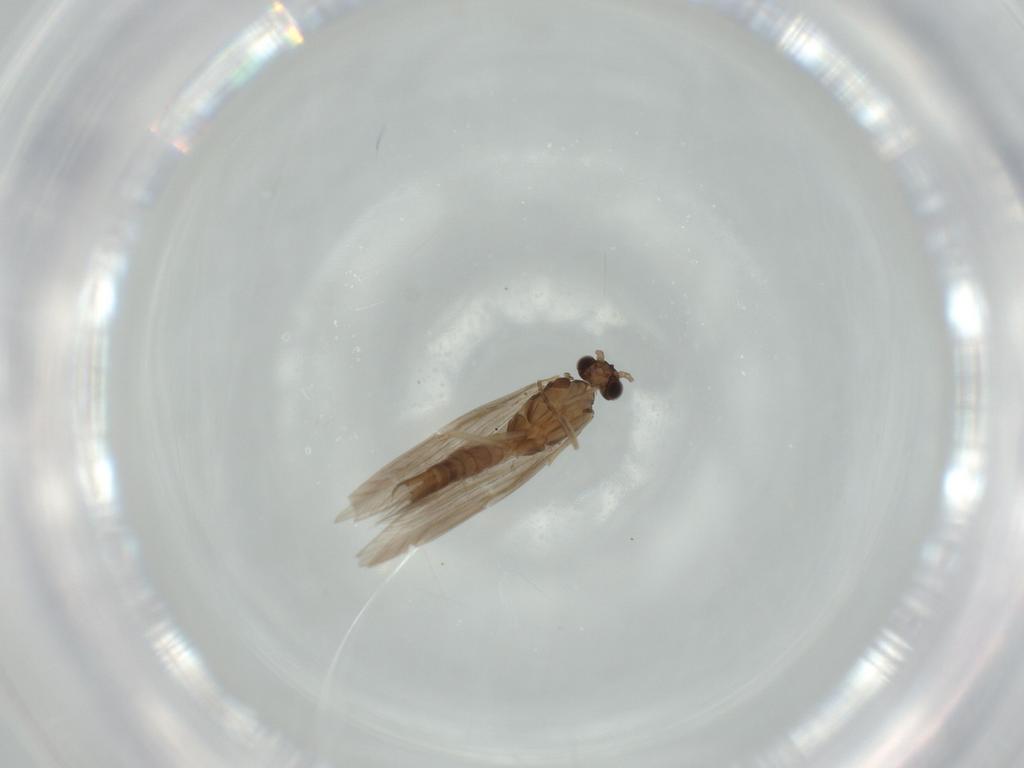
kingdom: Animalia
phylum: Arthropoda
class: Insecta
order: Trichoptera
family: Hydroptilidae
